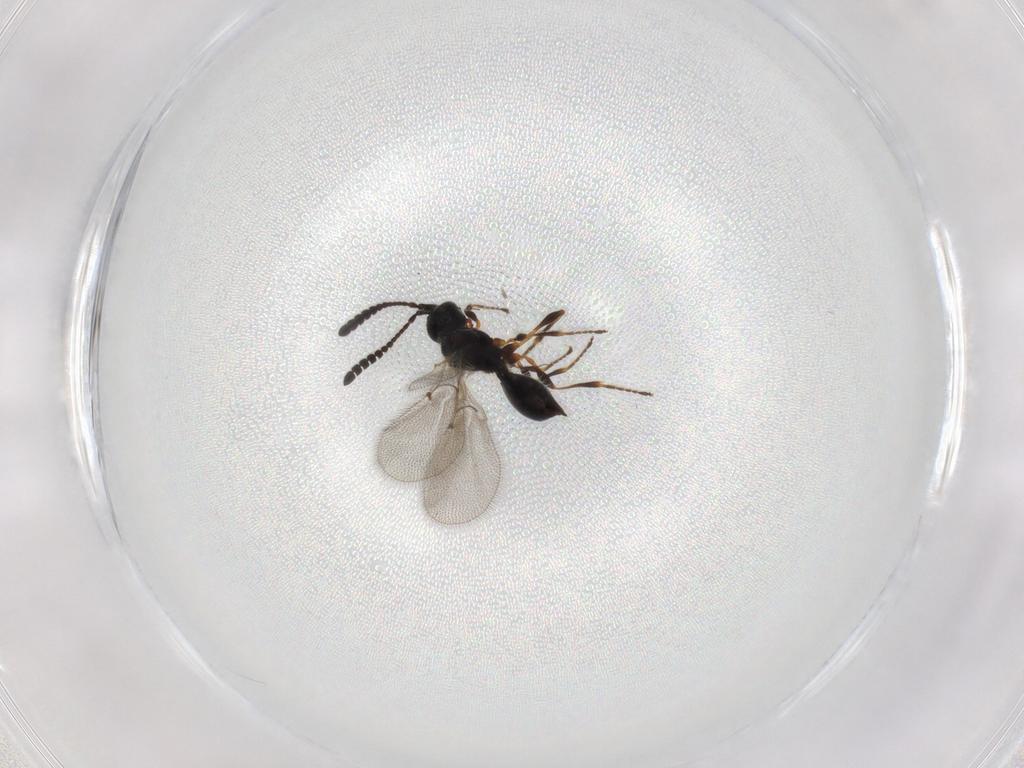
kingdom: Animalia
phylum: Arthropoda
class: Insecta
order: Hymenoptera
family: Diapriidae
